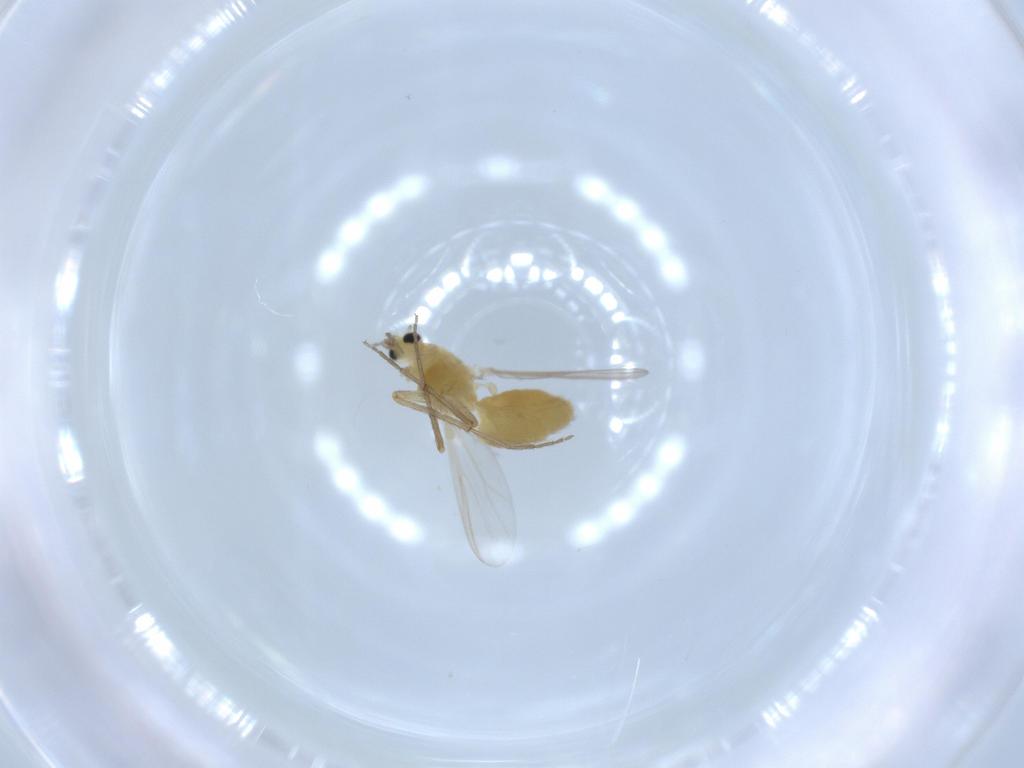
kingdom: Animalia
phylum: Arthropoda
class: Insecta
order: Diptera
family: Chironomidae
